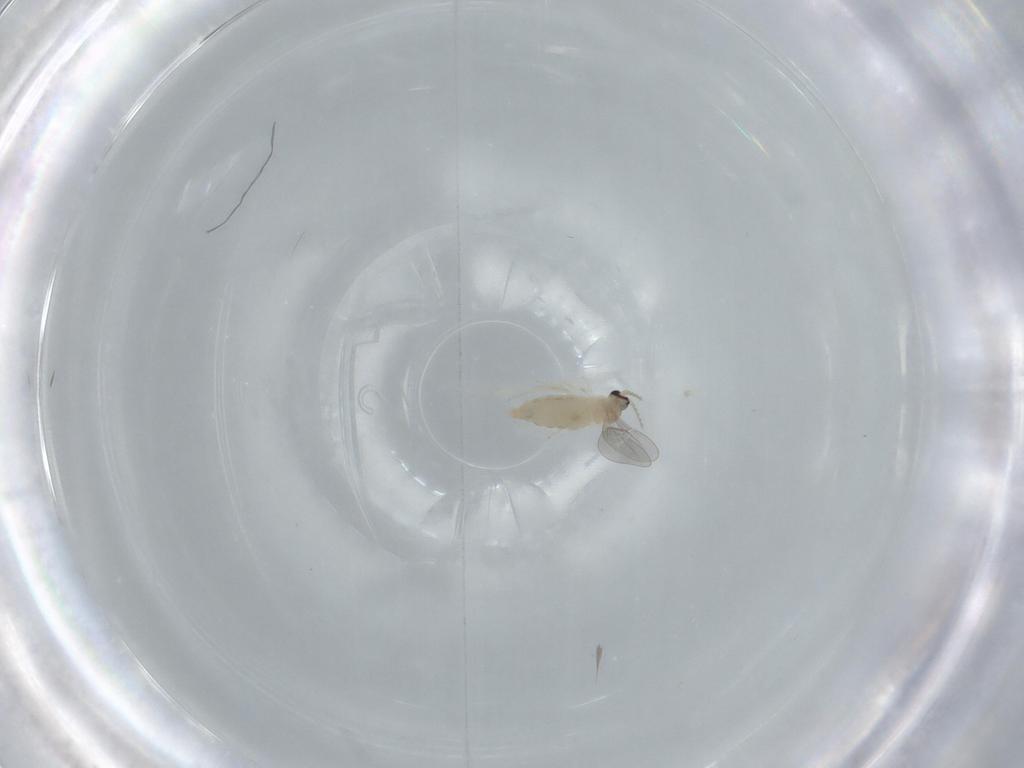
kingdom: Animalia
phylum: Arthropoda
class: Insecta
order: Diptera
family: Cecidomyiidae
